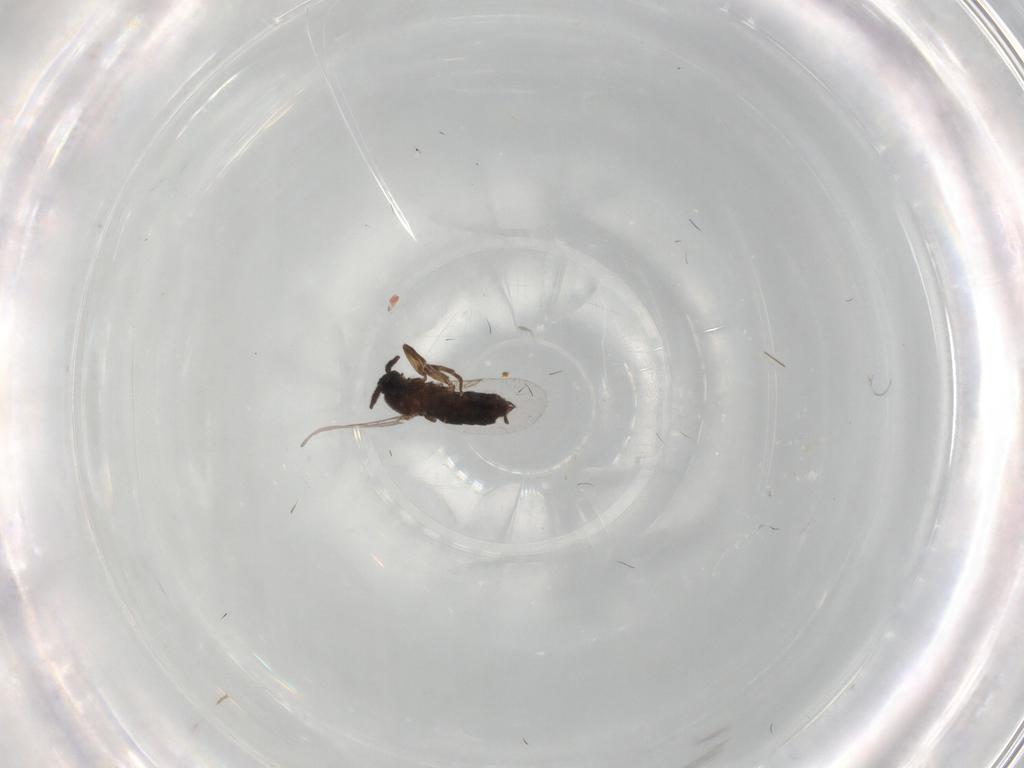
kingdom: Animalia
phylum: Arthropoda
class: Insecta
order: Diptera
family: Calliphoridae
